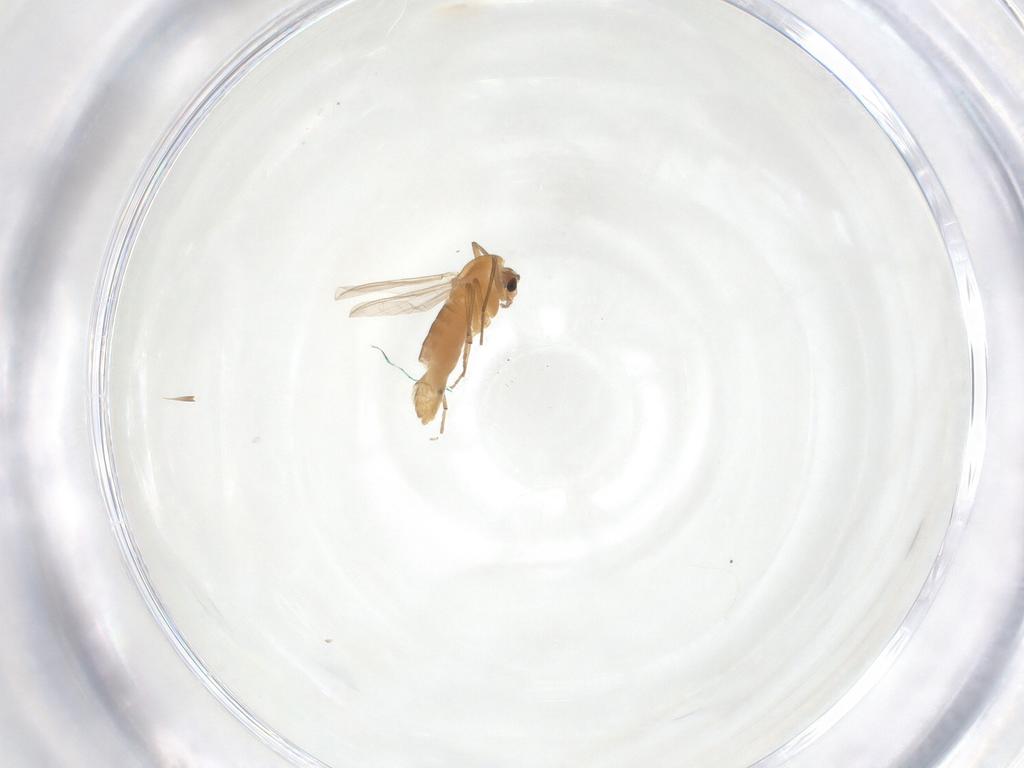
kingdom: Animalia
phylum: Arthropoda
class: Insecta
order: Diptera
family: Chironomidae
